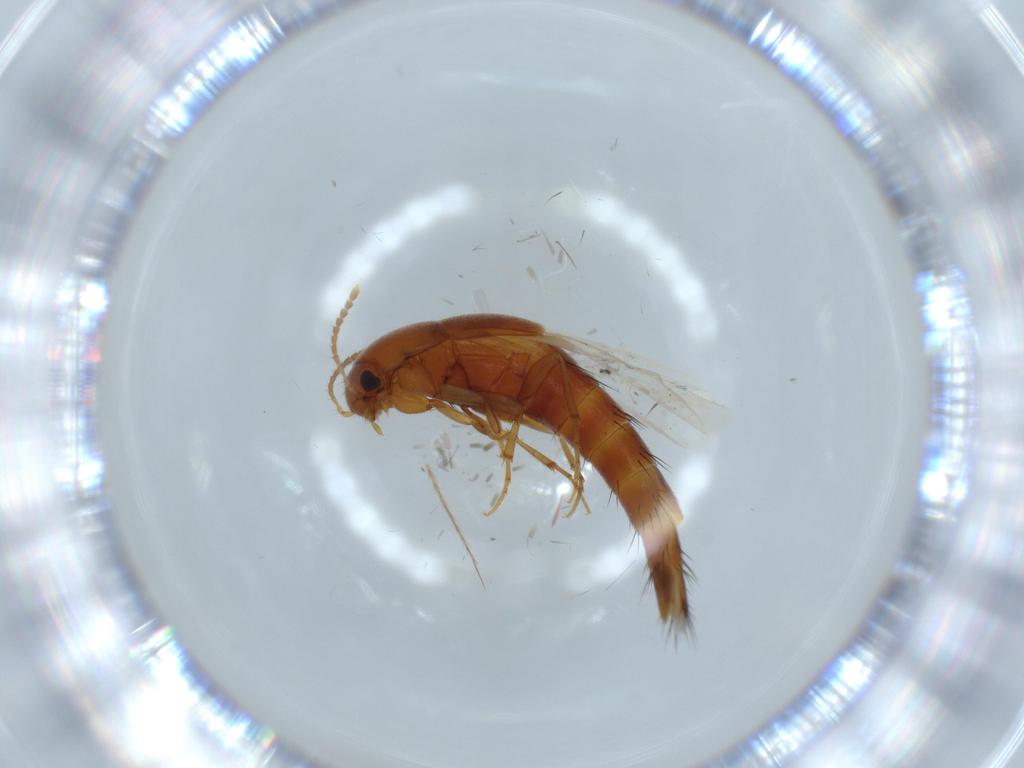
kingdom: Animalia
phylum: Arthropoda
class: Insecta
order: Coleoptera
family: Staphylinidae
